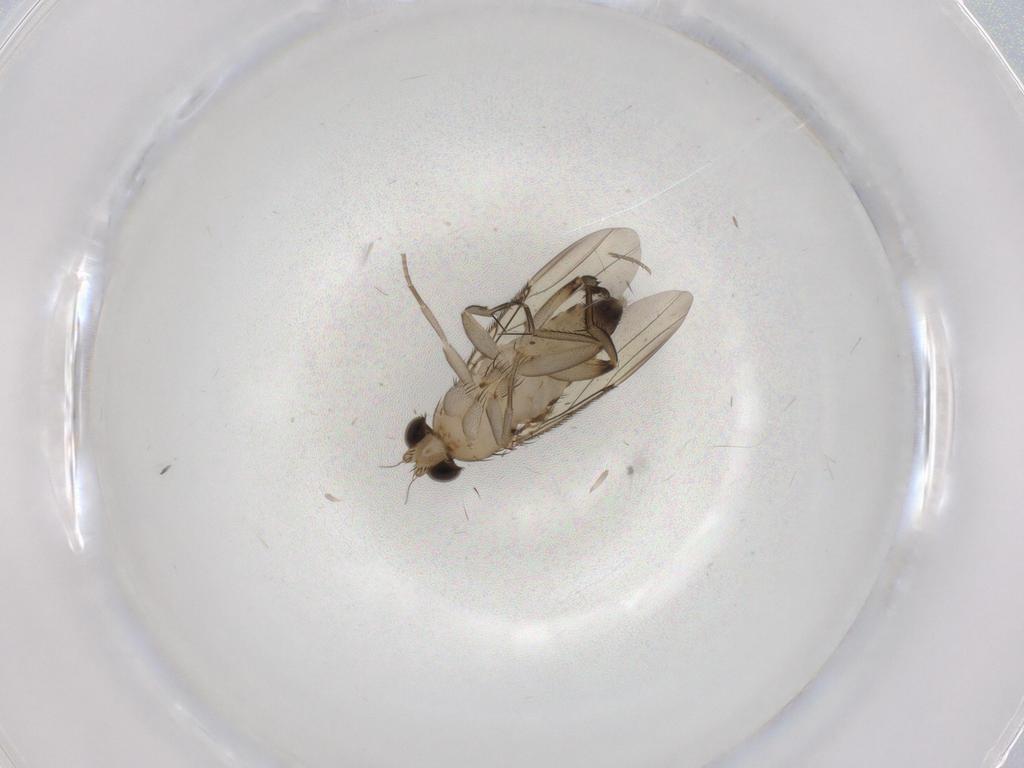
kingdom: Animalia
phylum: Arthropoda
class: Insecta
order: Diptera
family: Phoridae
